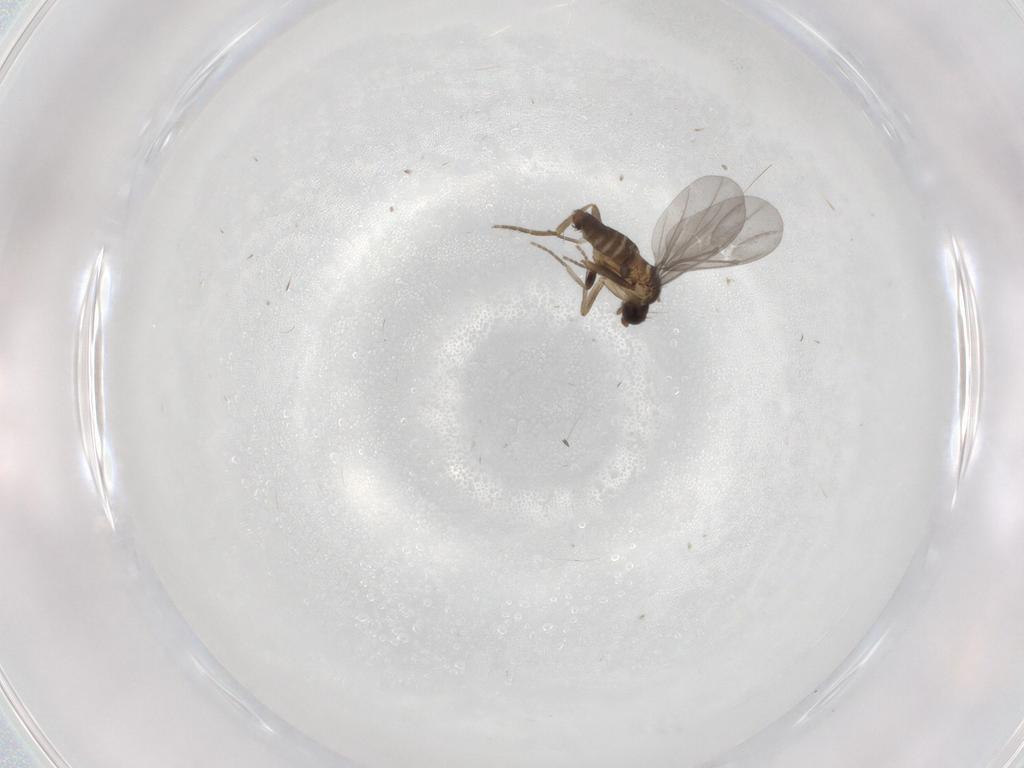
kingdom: Animalia
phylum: Arthropoda
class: Insecta
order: Diptera
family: Phoridae
